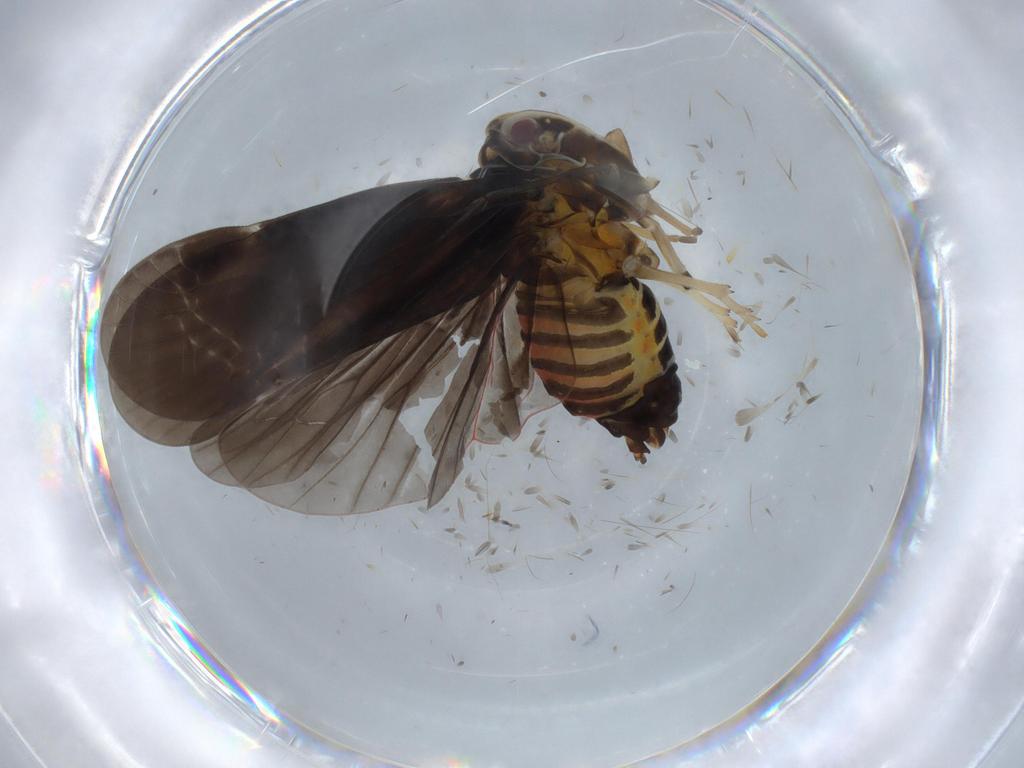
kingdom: Animalia
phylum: Arthropoda
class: Insecta
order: Hemiptera
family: Derbidae
